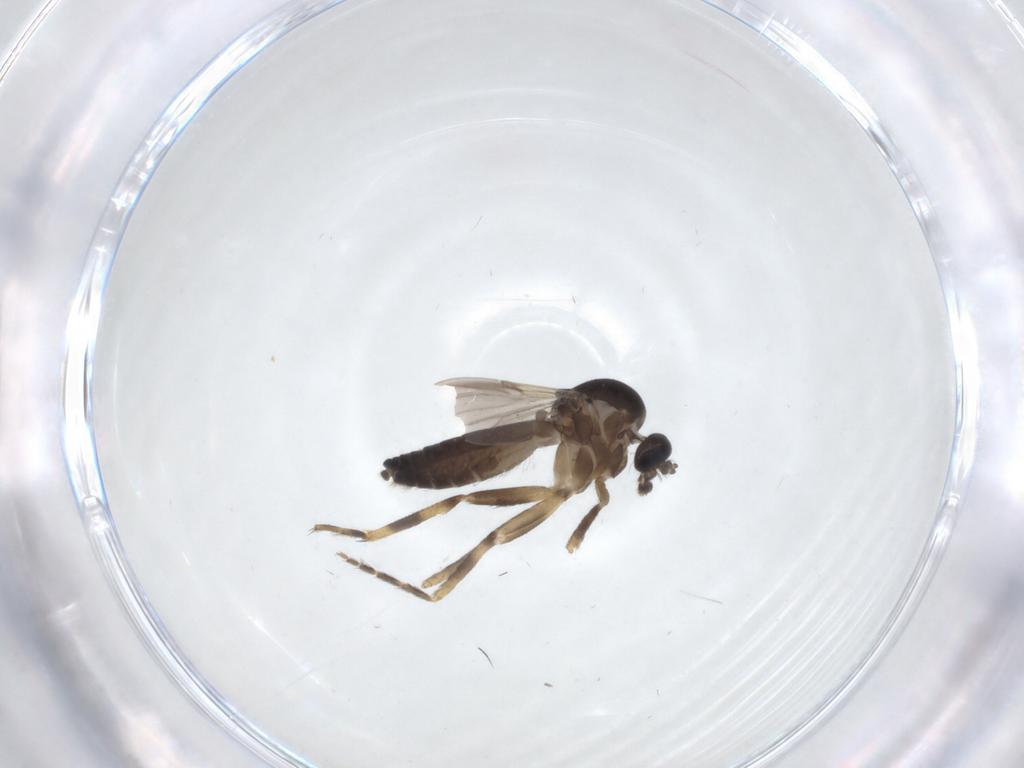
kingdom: Animalia
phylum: Arthropoda
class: Insecta
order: Diptera
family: Ceratopogonidae
